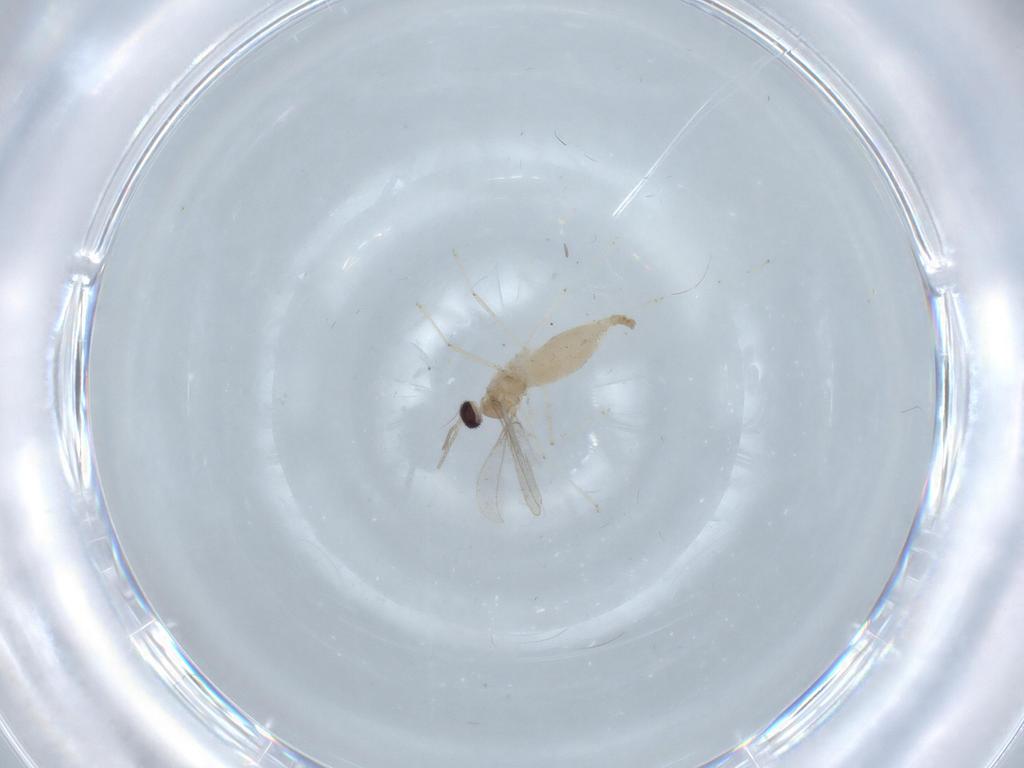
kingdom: Animalia
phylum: Arthropoda
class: Insecta
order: Diptera
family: Cecidomyiidae
